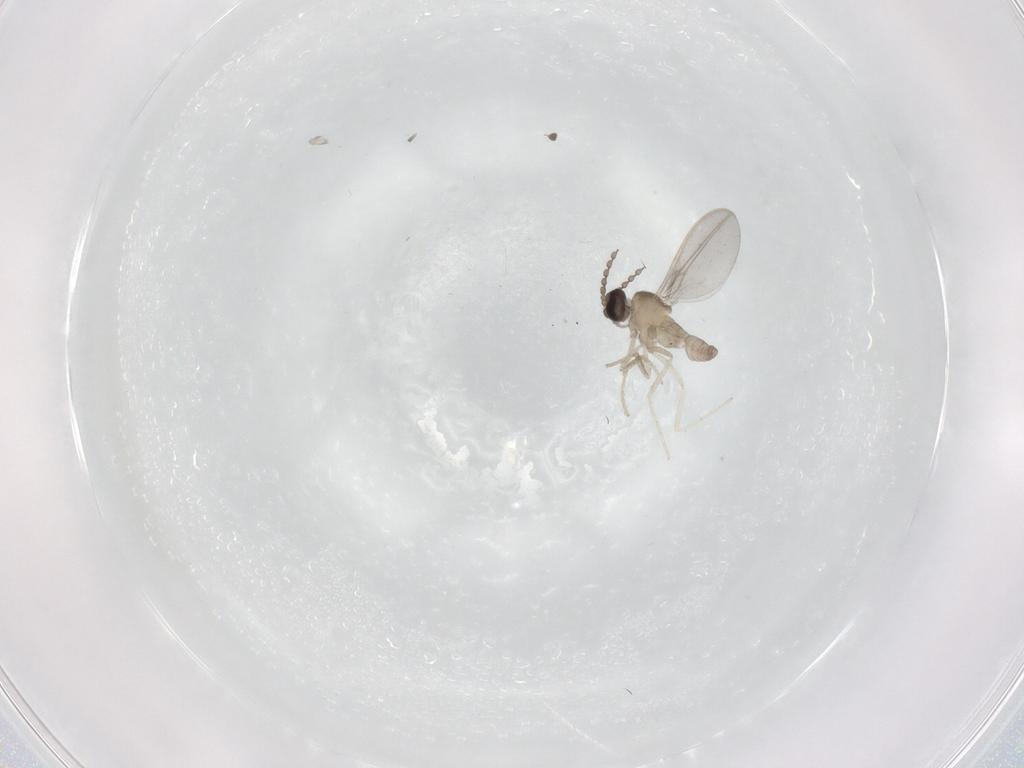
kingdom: Animalia
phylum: Arthropoda
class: Insecta
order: Diptera
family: Cecidomyiidae
